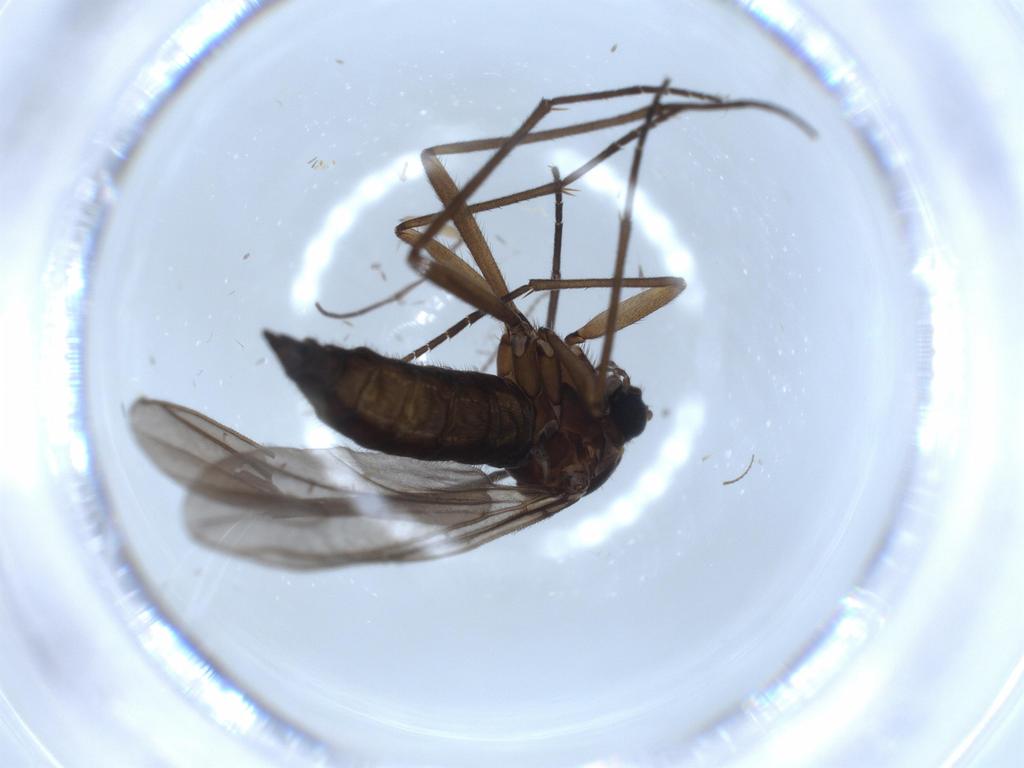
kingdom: Animalia
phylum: Arthropoda
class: Insecta
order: Diptera
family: Sciaridae
